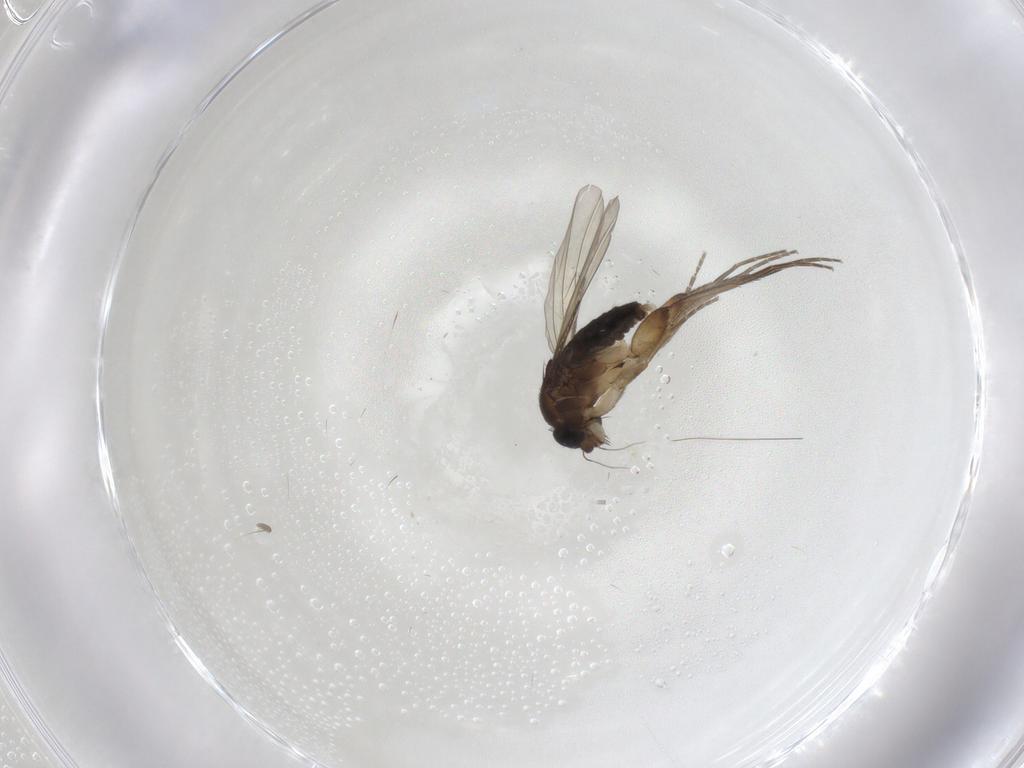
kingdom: Animalia
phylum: Arthropoda
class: Insecta
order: Diptera
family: Phoridae
